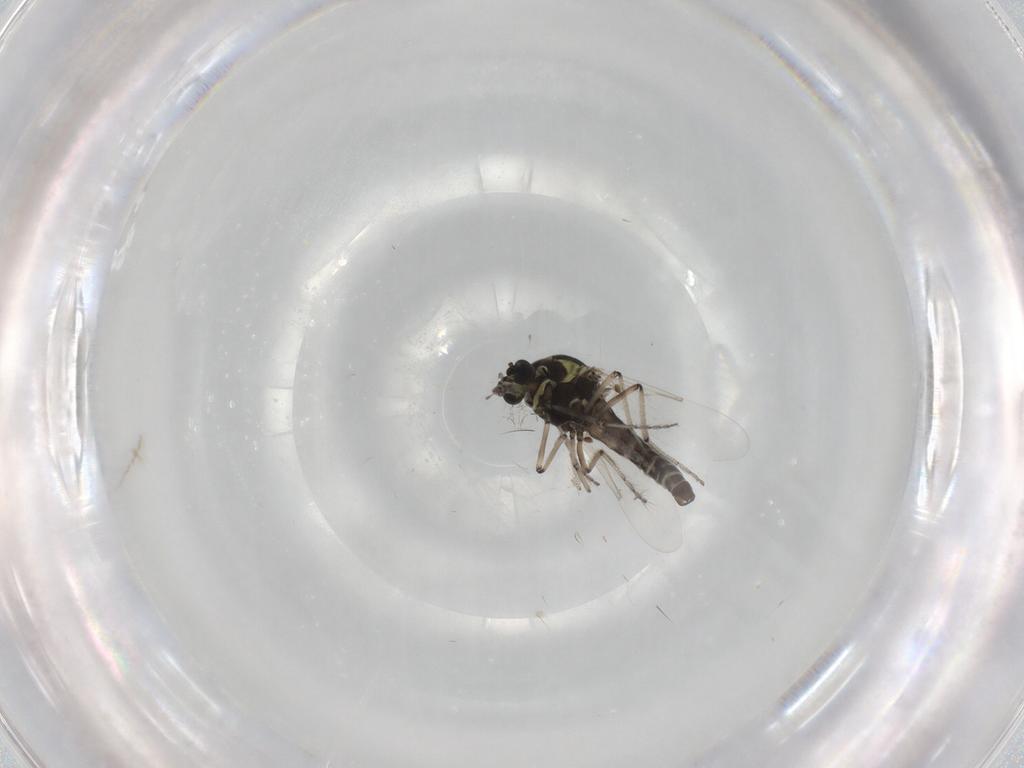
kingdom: Animalia
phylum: Arthropoda
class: Insecta
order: Diptera
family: Ceratopogonidae
